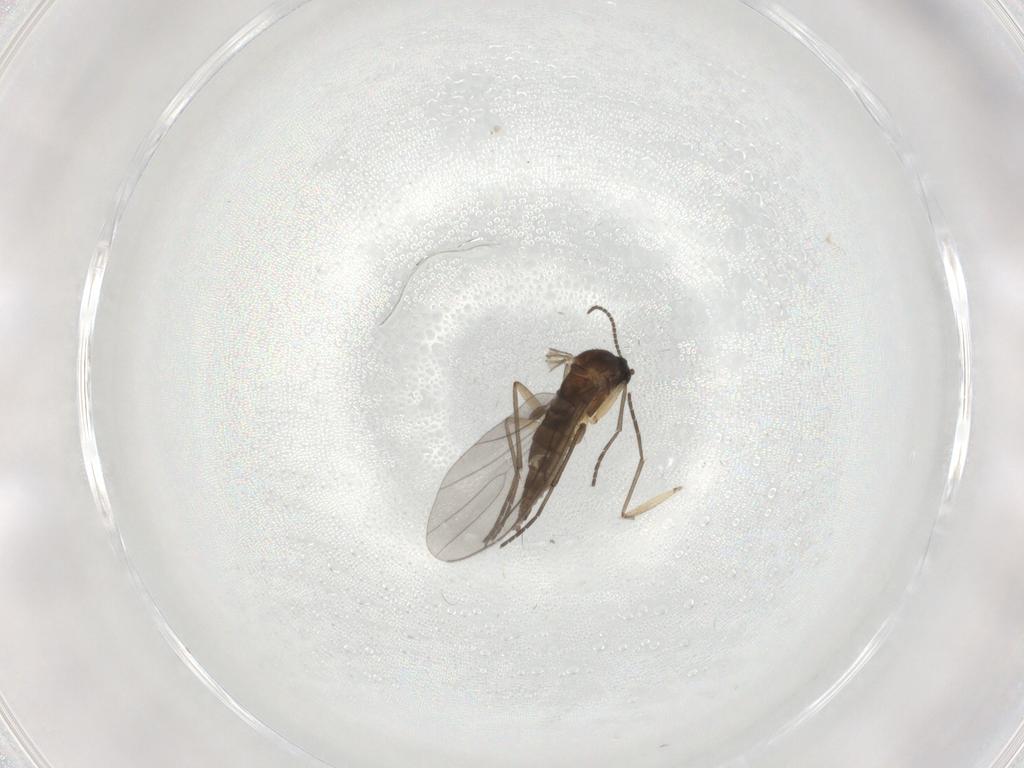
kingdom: Animalia
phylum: Arthropoda
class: Insecta
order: Diptera
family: Sciaridae
